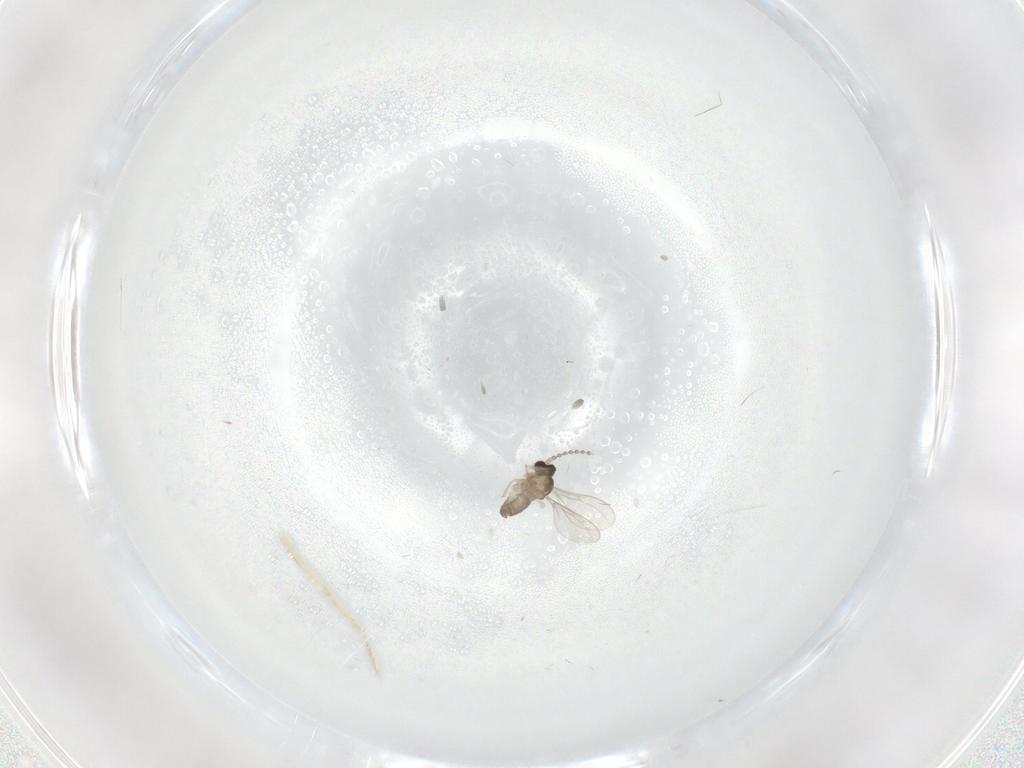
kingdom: Animalia
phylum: Arthropoda
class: Insecta
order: Diptera
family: Cecidomyiidae
